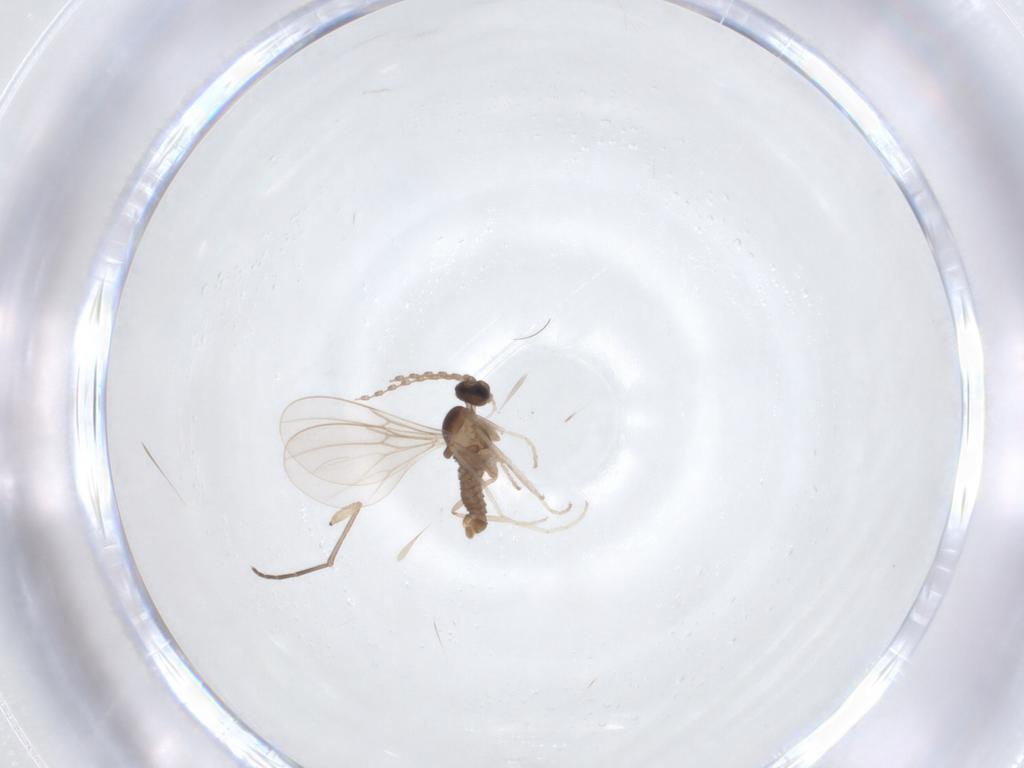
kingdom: Animalia
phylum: Arthropoda
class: Insecta
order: Diptera
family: Cecidomyiidae
